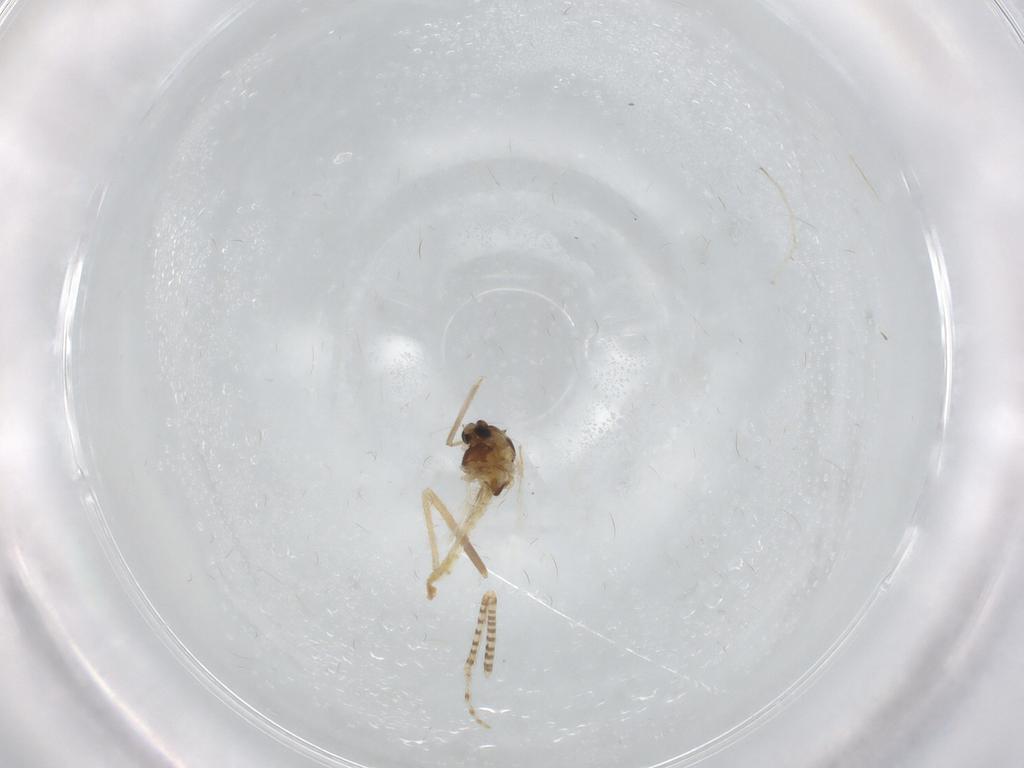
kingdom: Animalia
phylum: Arthropoda
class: Insecta
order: Diptera
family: Chironomidae
